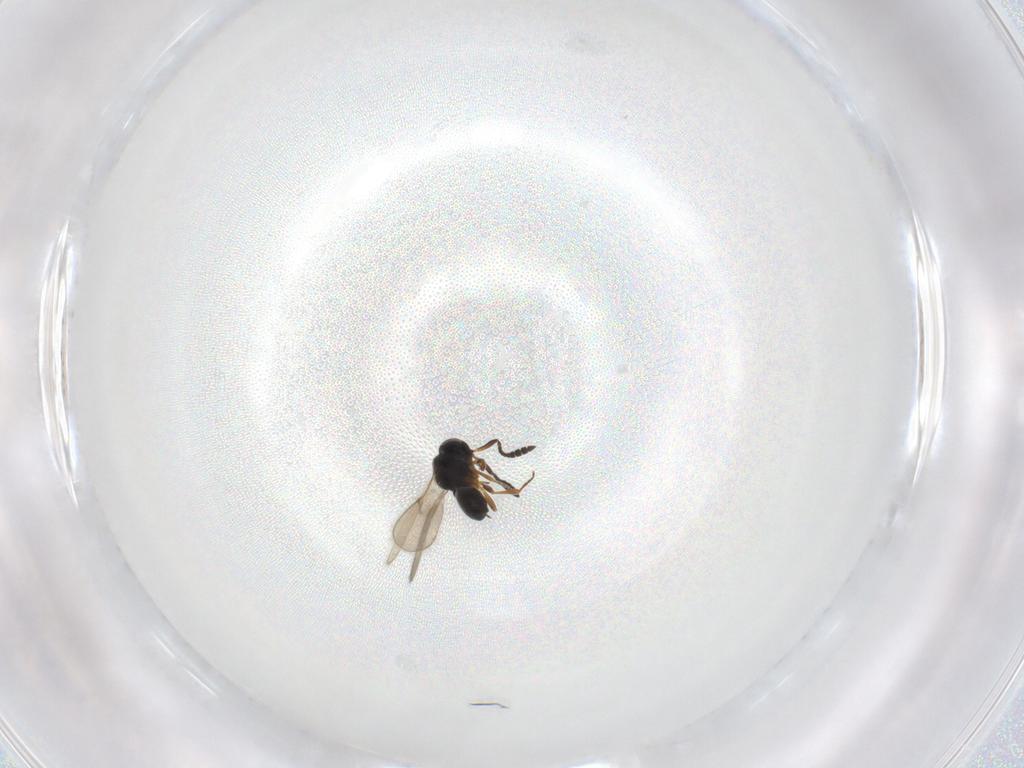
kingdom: Animalia
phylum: Arthropoda
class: Insecta
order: Hymenoptera
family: Scelionidae
